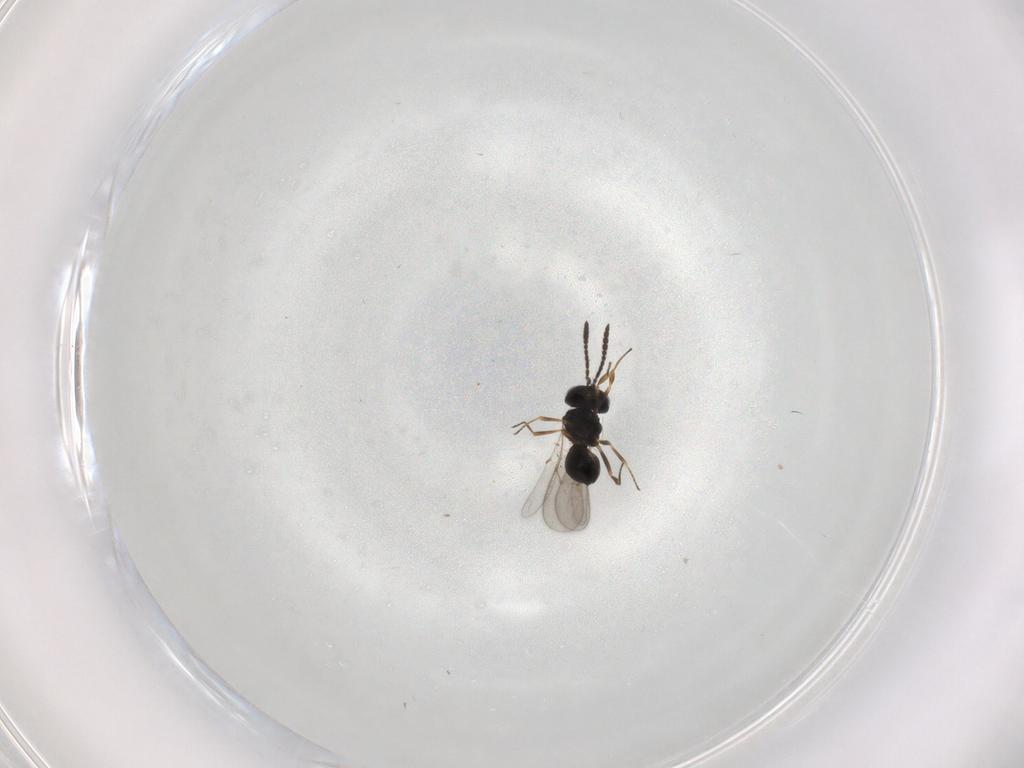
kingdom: Animalia
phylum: Arthropoda
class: Insecta
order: Hymenoptera
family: Scelionidae
